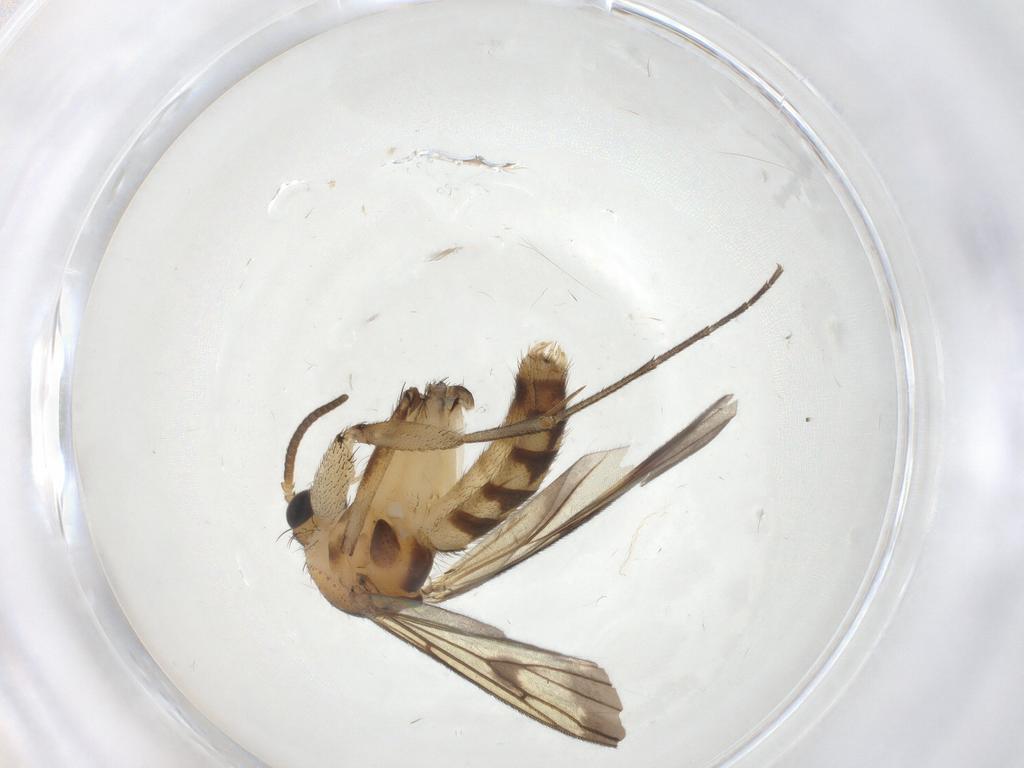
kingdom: Animalia
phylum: Arthropoda
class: Insecta
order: Diptera
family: Mycetophilidae
